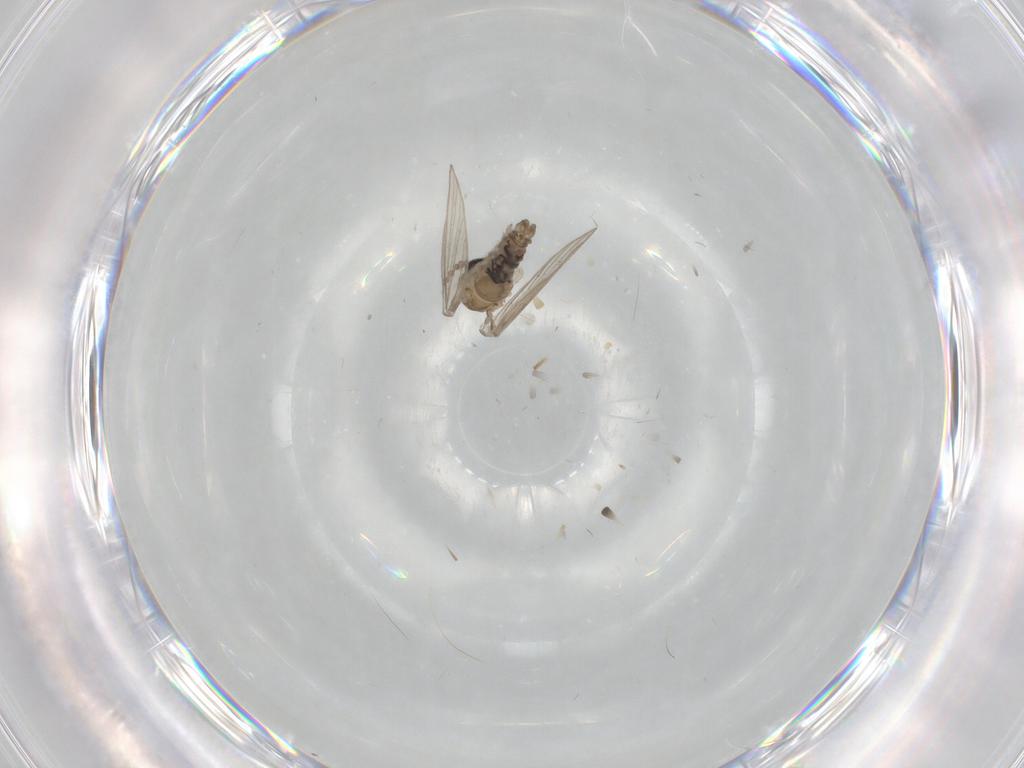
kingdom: Animalia
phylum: Arthropoda
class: Insecta
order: Diptera
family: Psychodidae
